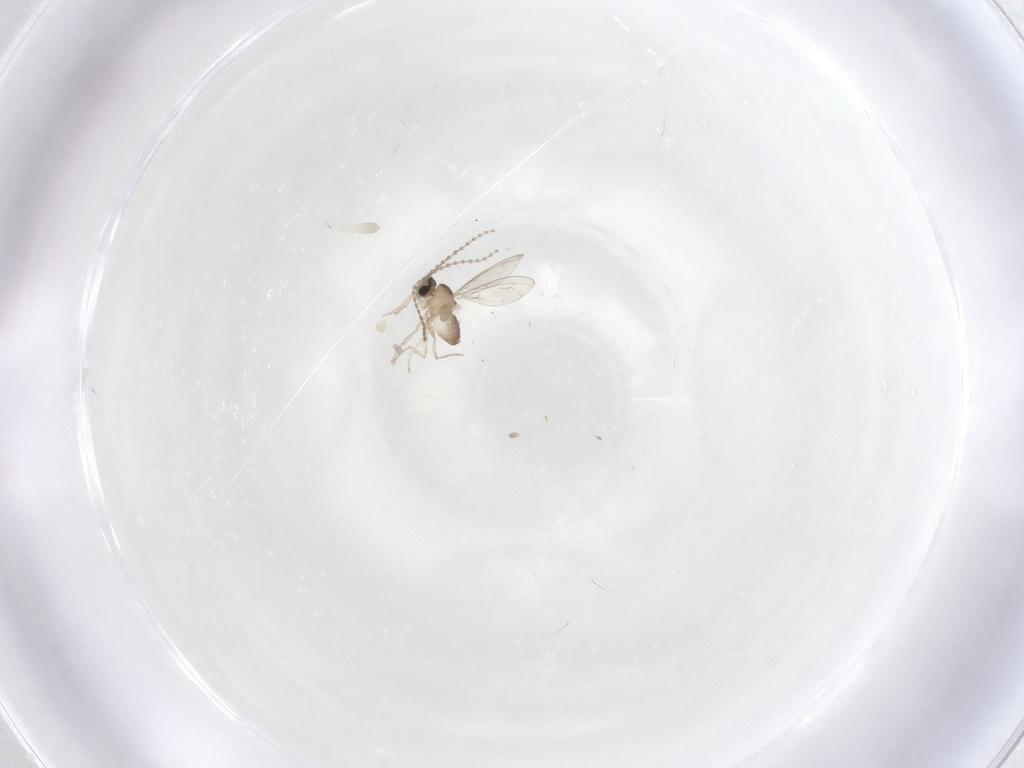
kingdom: Animalia
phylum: Arthropoda
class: Insecta
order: Diptera
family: Cecidomyiidae
